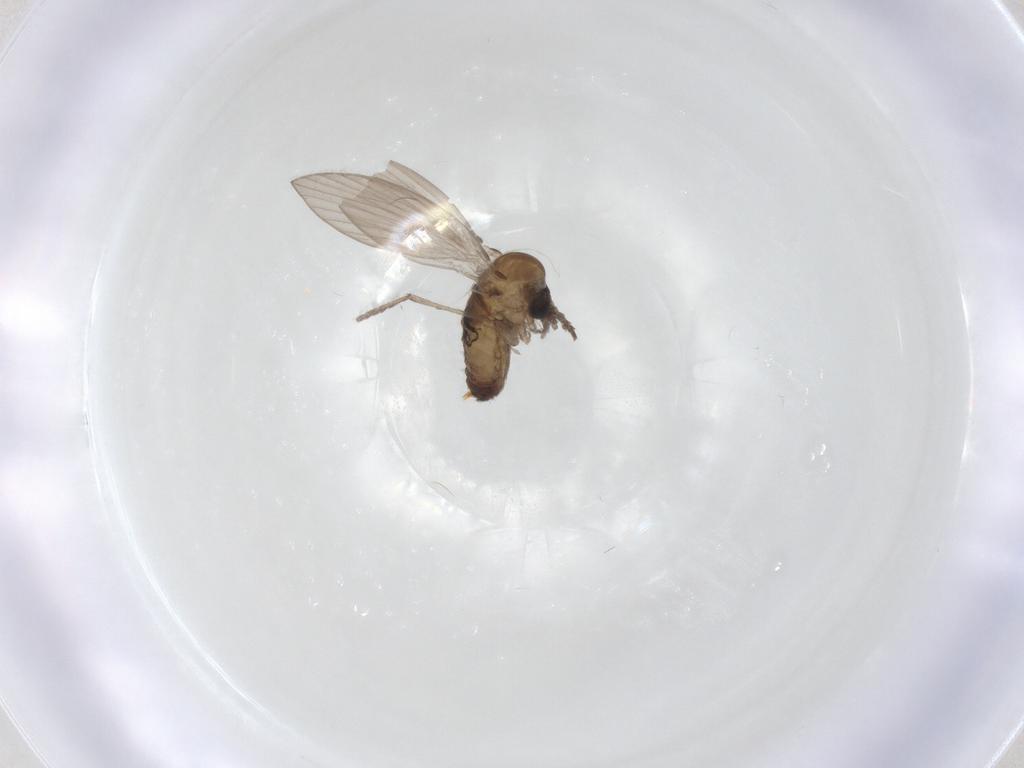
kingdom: Animalia
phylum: Arthropoda
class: Insecta
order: Diptera
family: Psychodidae
